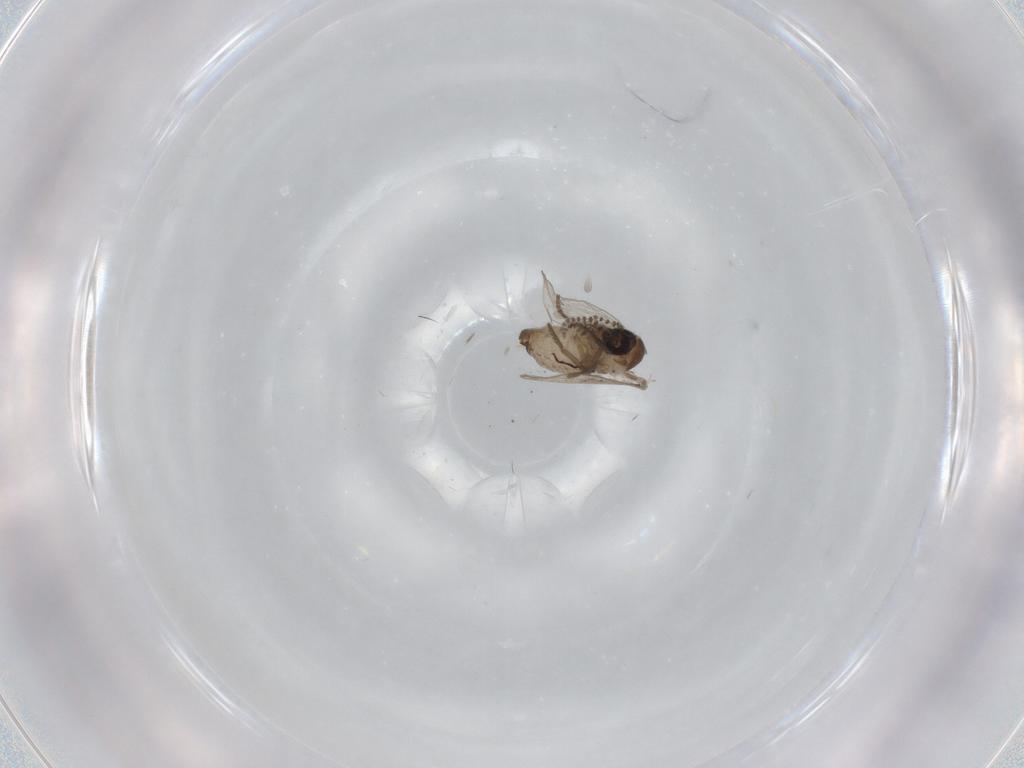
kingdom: Animalia
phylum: Arthropoda
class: Insecta
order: Diptera
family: Psychodidae
